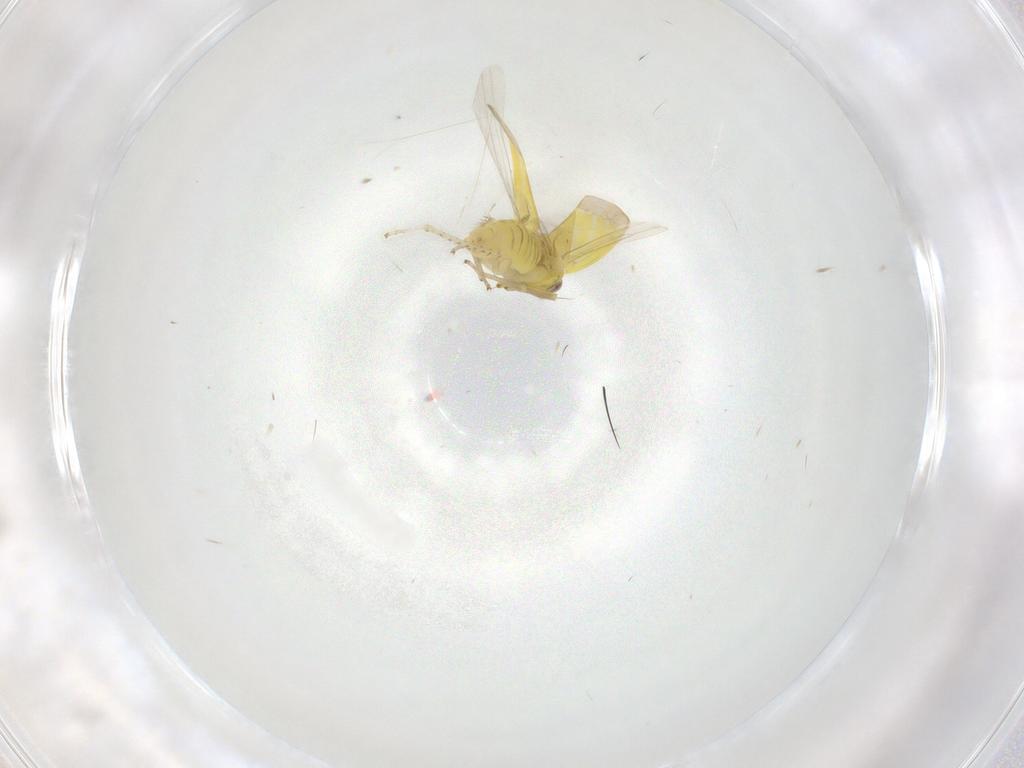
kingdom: Animalia
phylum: Arthropoda
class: Insecta
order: Hemiptera
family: Cicadellidae
